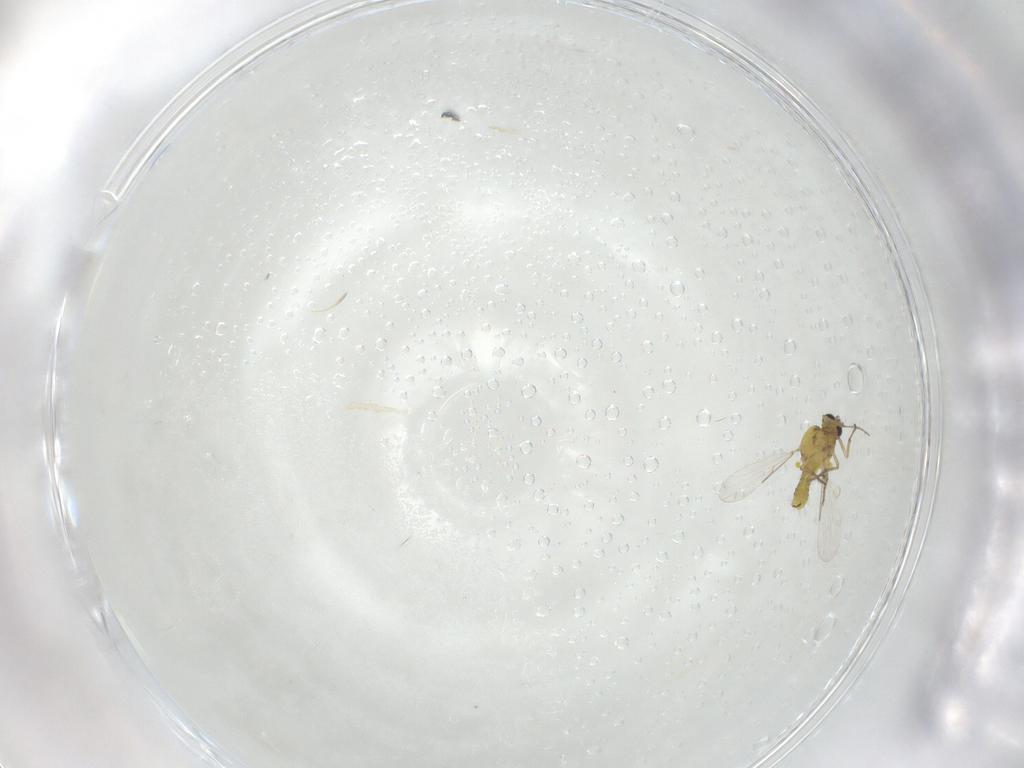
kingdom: Animalia
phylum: Arthropoda
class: Insecta
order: Diptera
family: Ceratopogonidae
